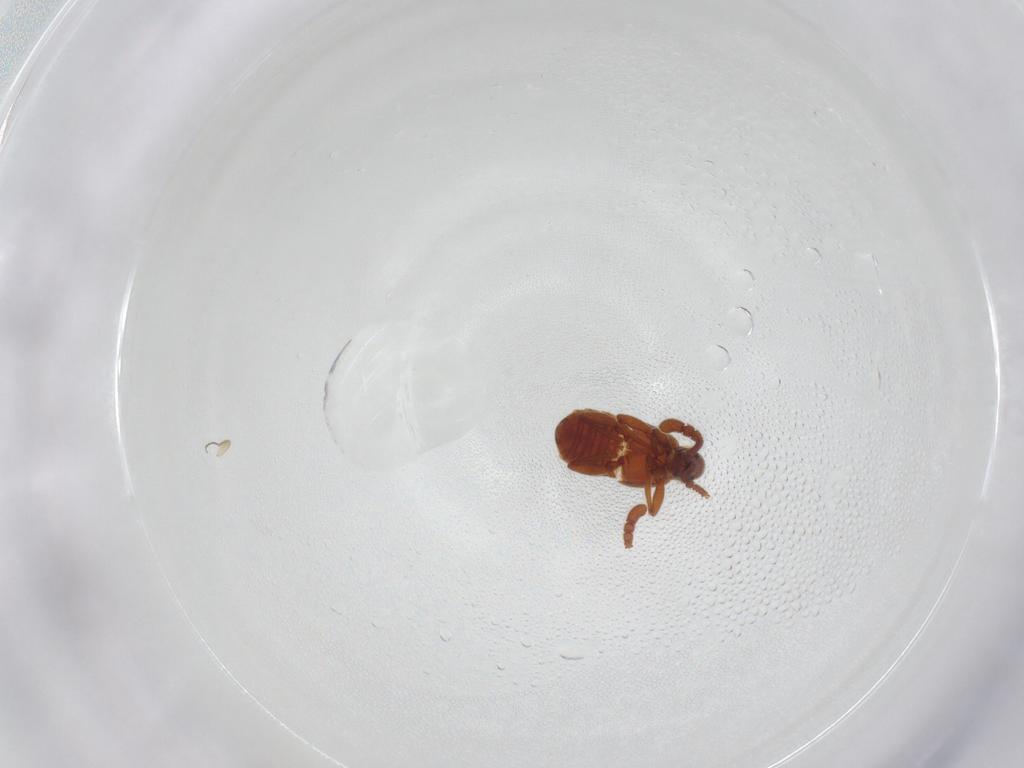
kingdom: Animalia
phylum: Arthropoda
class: Insecta
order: Coleoptera
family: Staphylinidae
